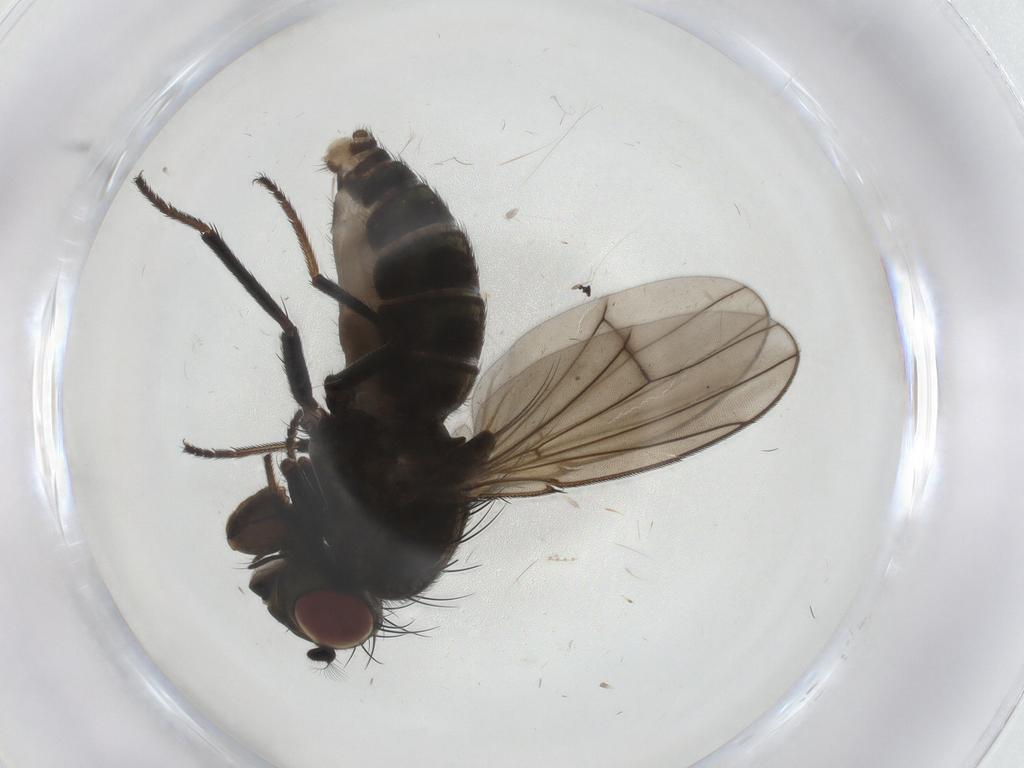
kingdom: Animalia
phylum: Arthropoda
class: Insecta
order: Diptera
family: Ephydridae
